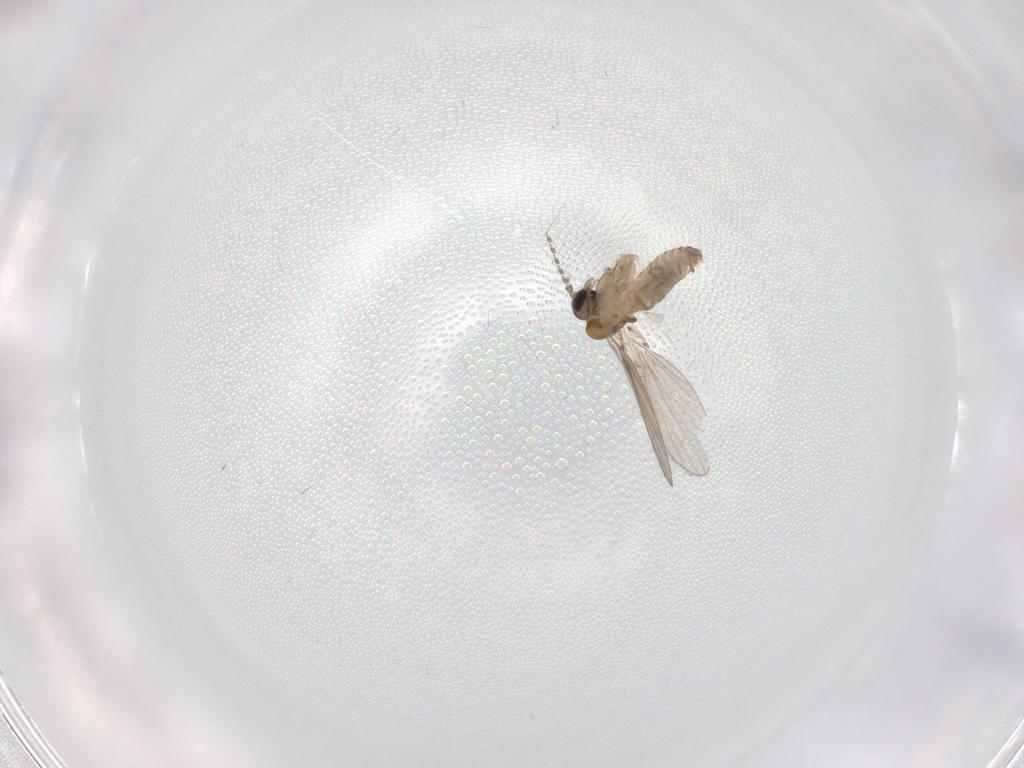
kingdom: Animalia
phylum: Arthropoda
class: Insecta
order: Diptera
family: Psychodidae
